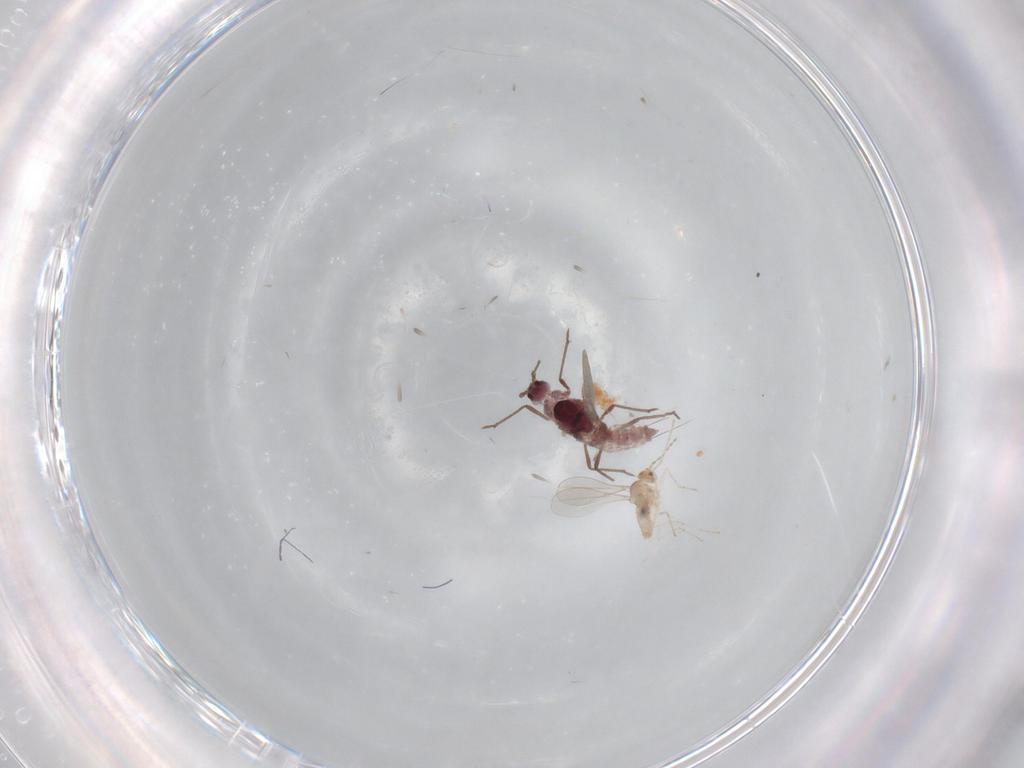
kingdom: Animalia
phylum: Arthropoda
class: Insecta
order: Diptera
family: Cecidomyiidae
